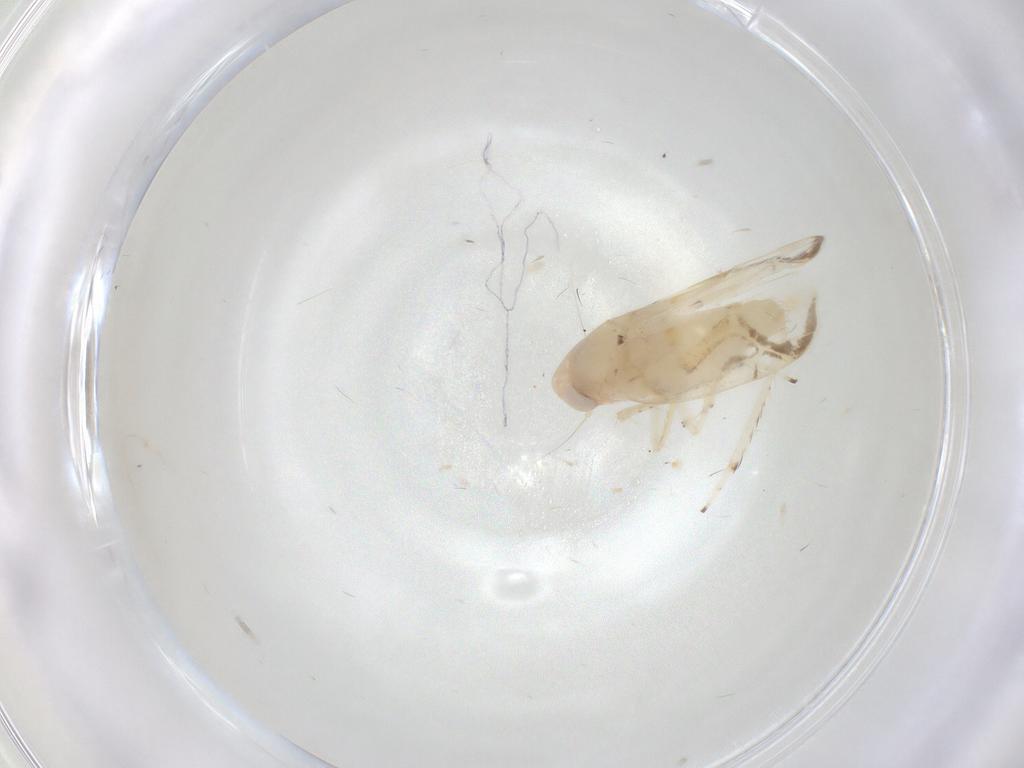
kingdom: Animalia
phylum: Arthropoda
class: Insecta
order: Hemiptera
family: Cicadellidae
